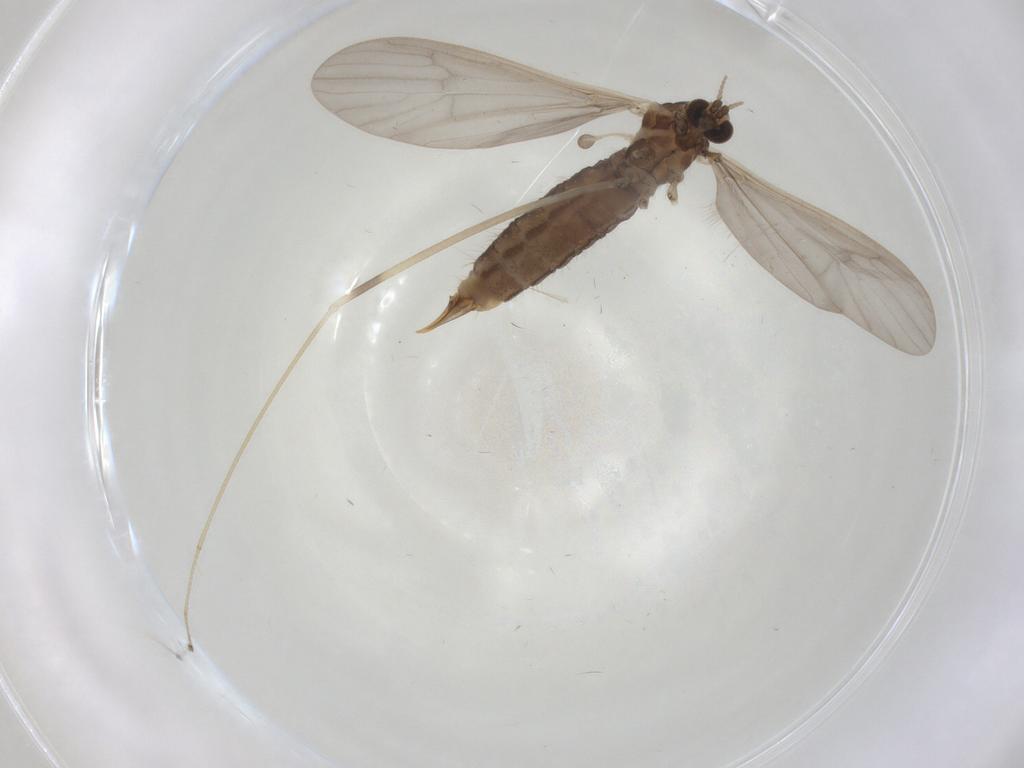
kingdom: Animalia
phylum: Arthropoda
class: Insecta
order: Diptera
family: Limoniidae
